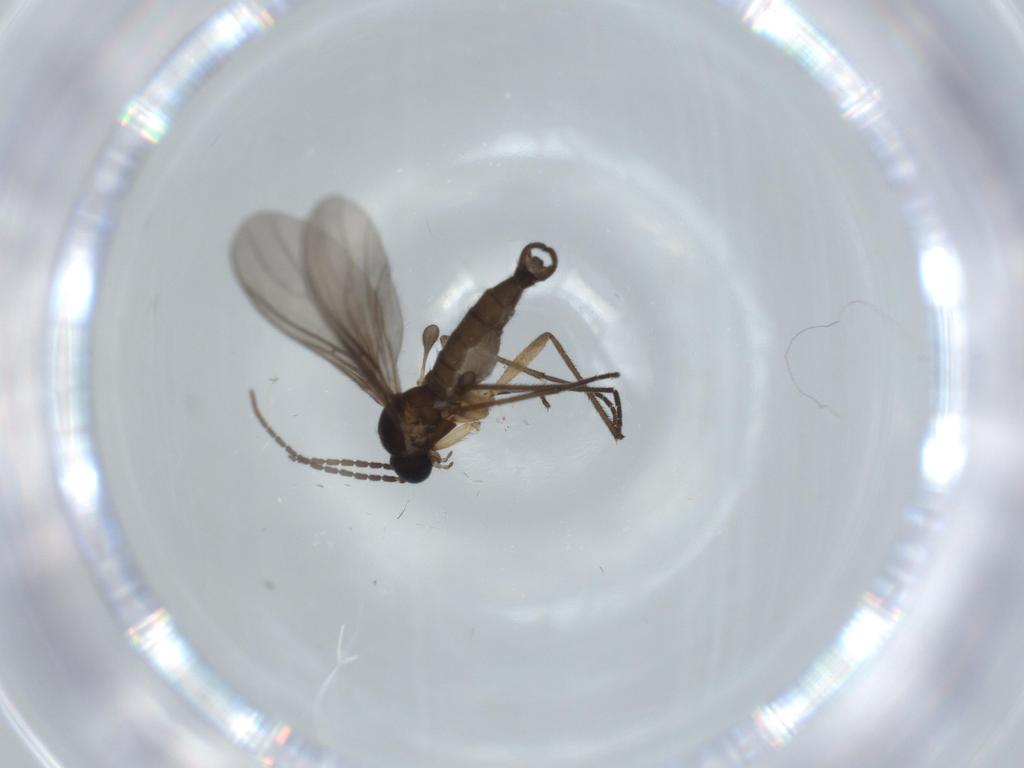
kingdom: Animalia
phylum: Arthropoda
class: Insecta
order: Diptera
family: Sciaridae
